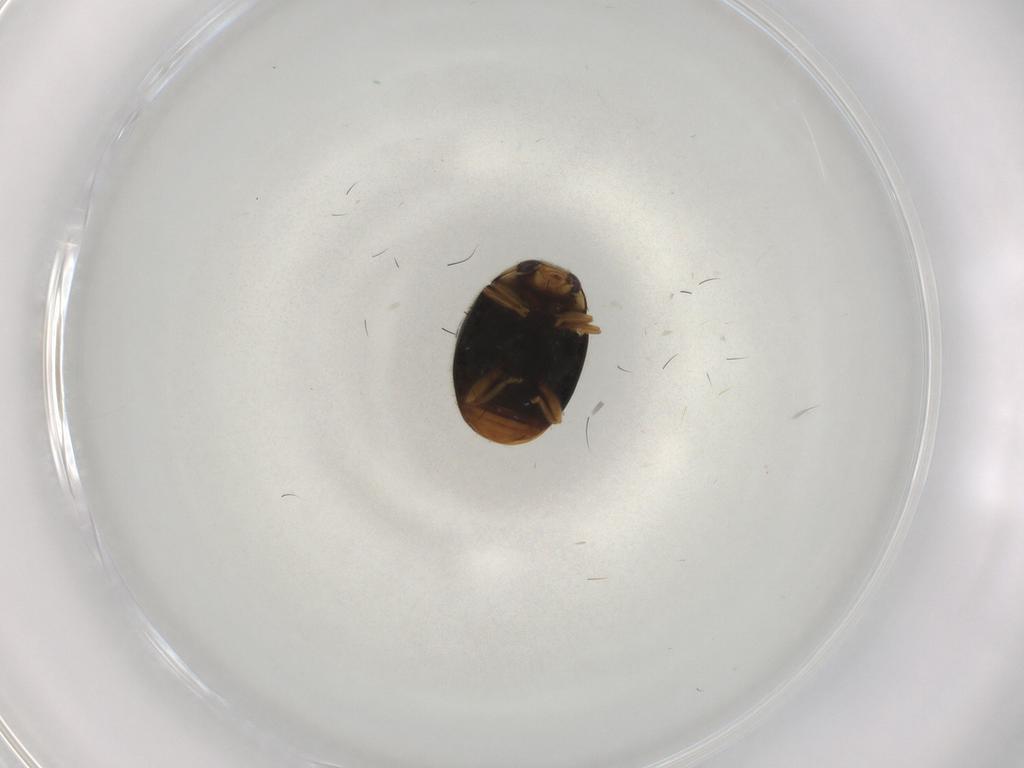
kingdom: Animalia
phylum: Arthropoda
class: Insecta
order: Coleoptera
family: Coccinellidae
